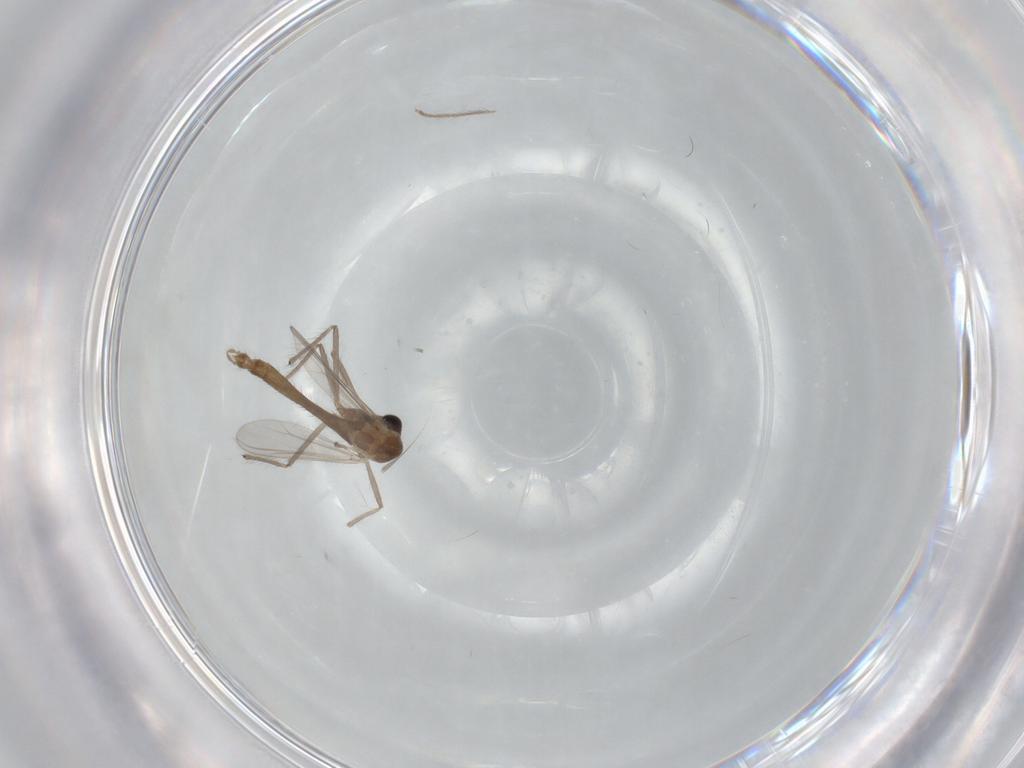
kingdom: Animalia
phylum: Arthropoda
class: Insecta
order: Diptera
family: Chironomidae
